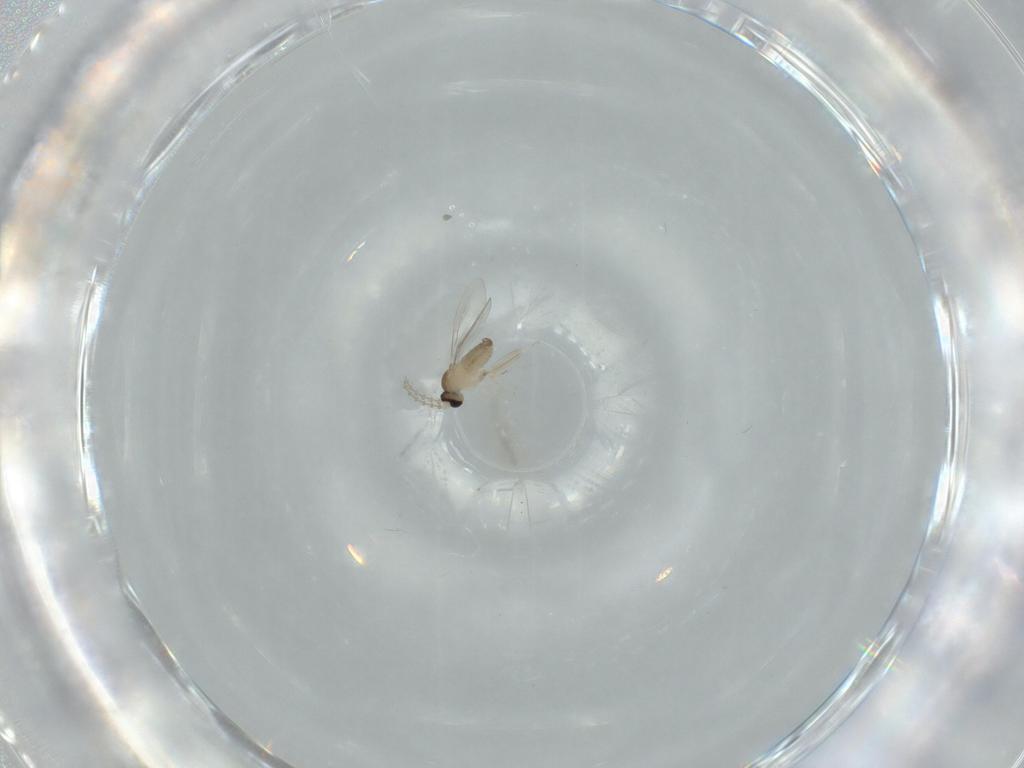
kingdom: Animalia
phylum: Arthropoda
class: Insecta
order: Diptera
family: Cecidomyiidae
